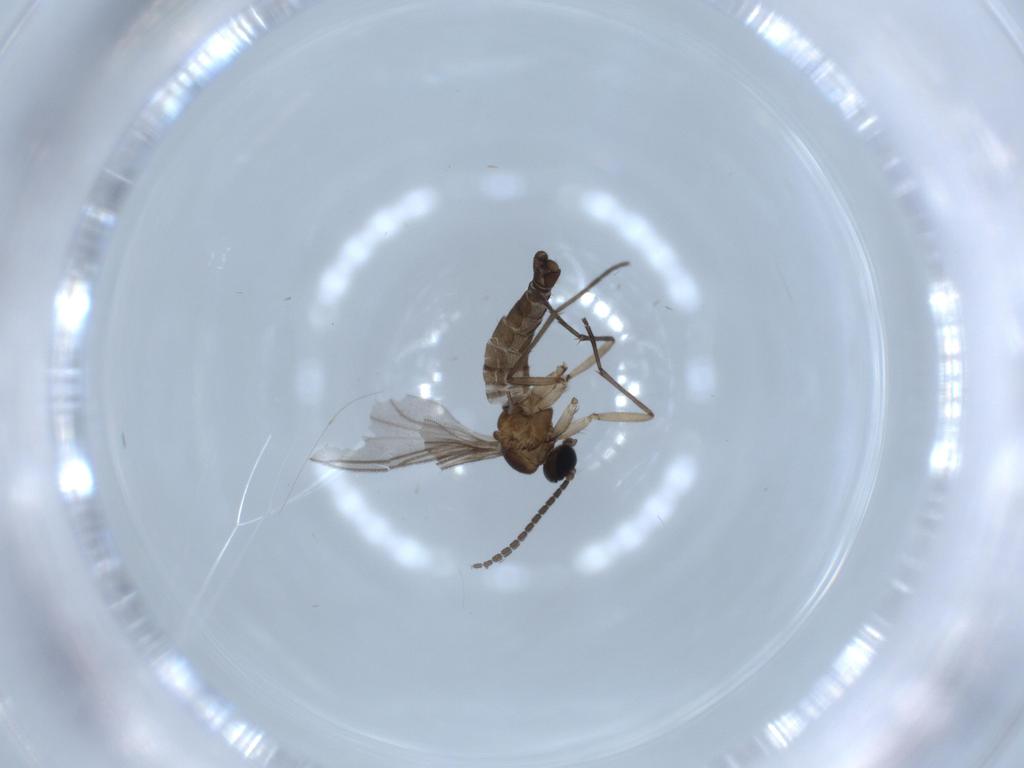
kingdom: Animalia
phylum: Arthropoda
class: Insecta
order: Diptera
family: Sciaridae
